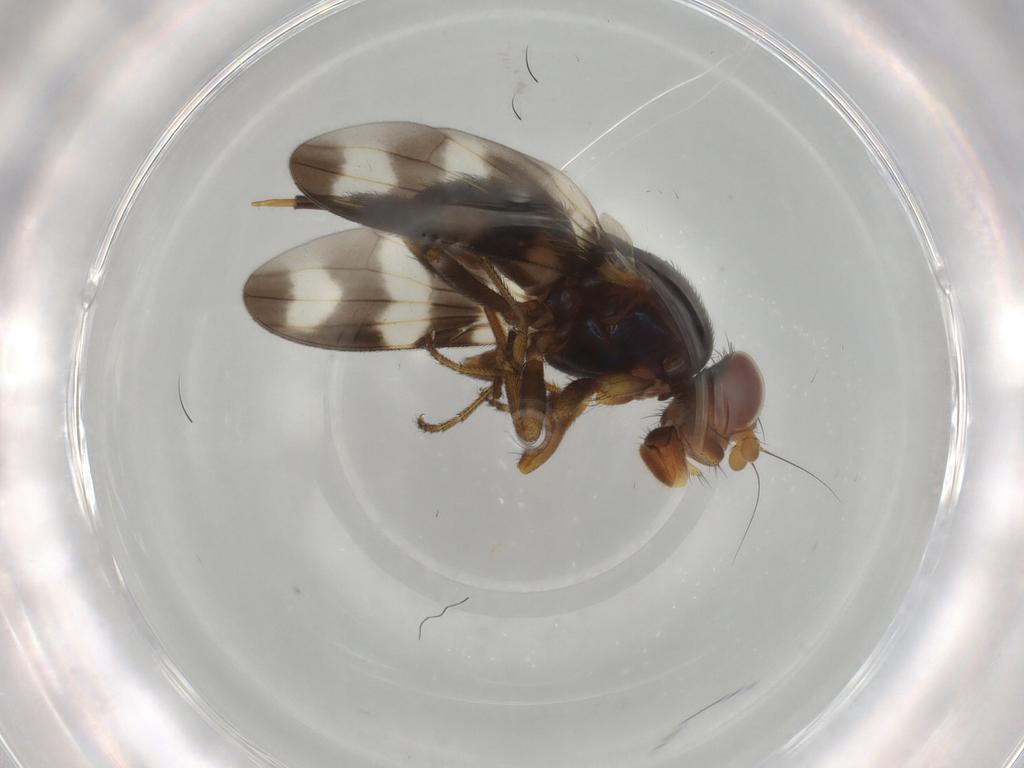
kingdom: Animalia
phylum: Arthropoda
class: Insecta
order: Diptera
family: Ulidiidae
